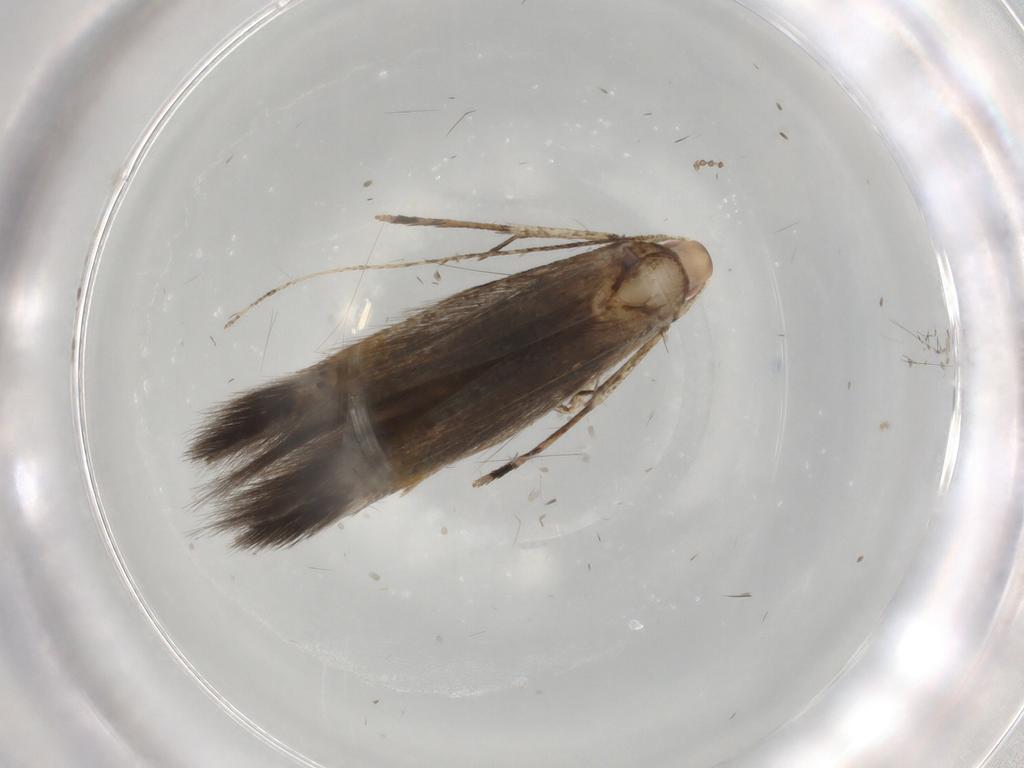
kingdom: Animalia
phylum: Arthropoda
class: Insecta
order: Lepidoptera
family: Cosmopterigidae
